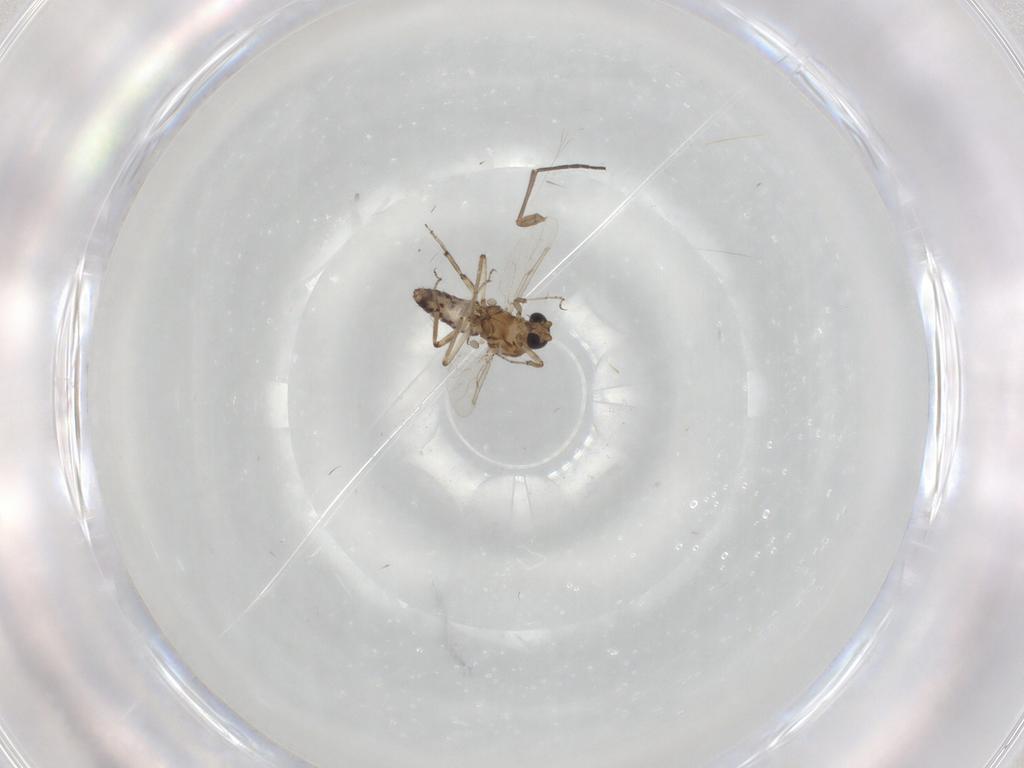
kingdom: Animalia
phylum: Arthropoda
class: Insecta
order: Diptera
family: Ceratopogonidae
